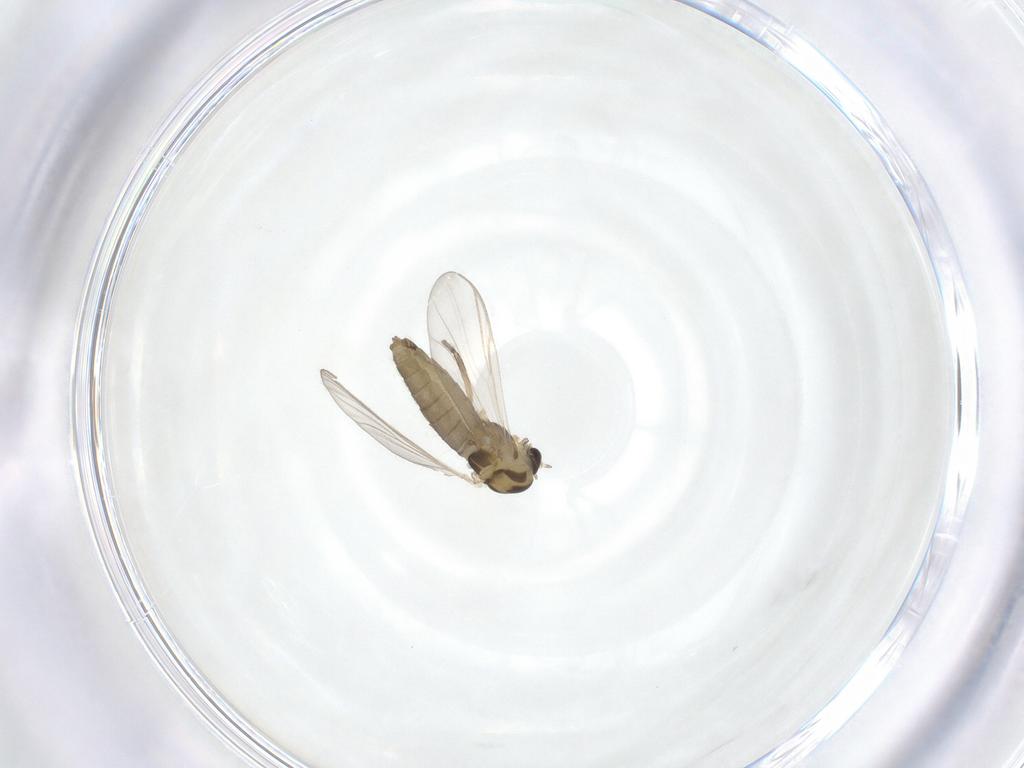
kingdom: Animalia
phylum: Arthropoda
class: Insecta
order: Diptera
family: Chironomidae
